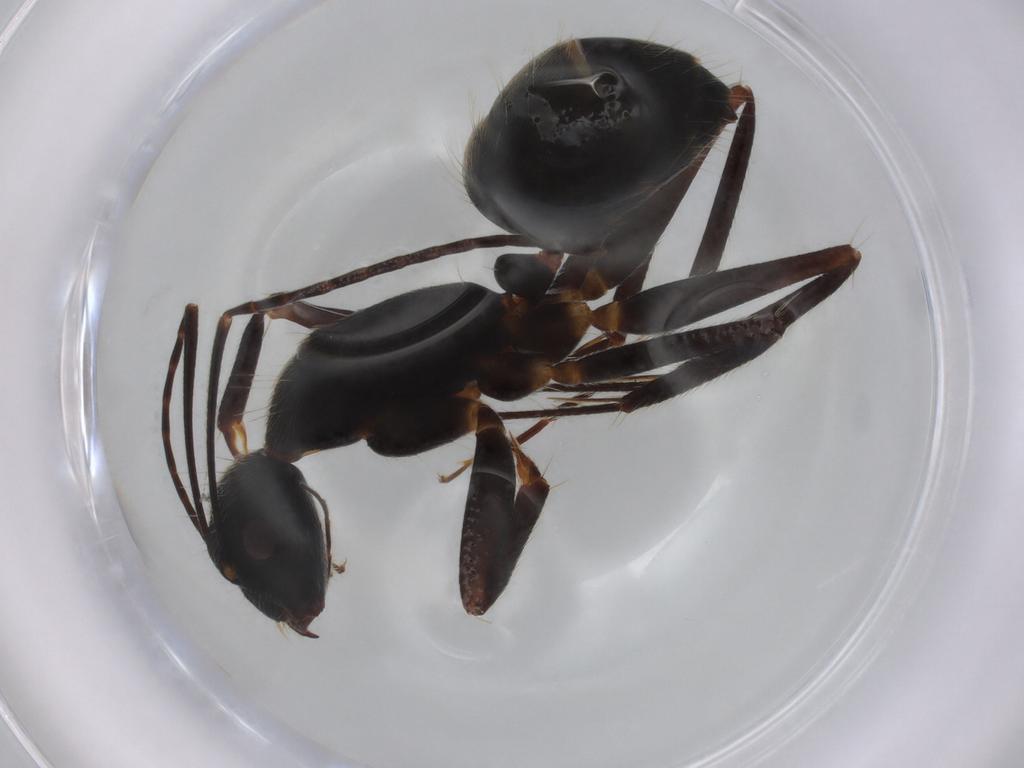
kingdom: Animalia
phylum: Arthropoda
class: Insecta
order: Hymenoptera
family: Formicidae
